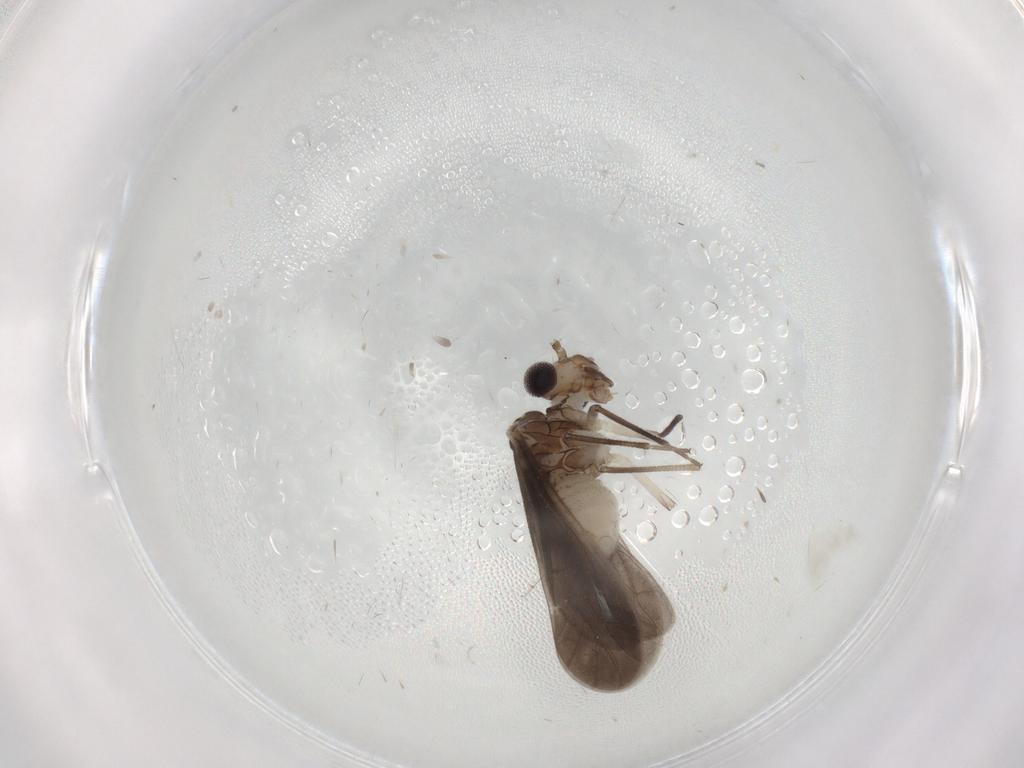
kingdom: Animalia
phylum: Arthropoda
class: Insecta
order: Psocodea
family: Caeciliusidae
